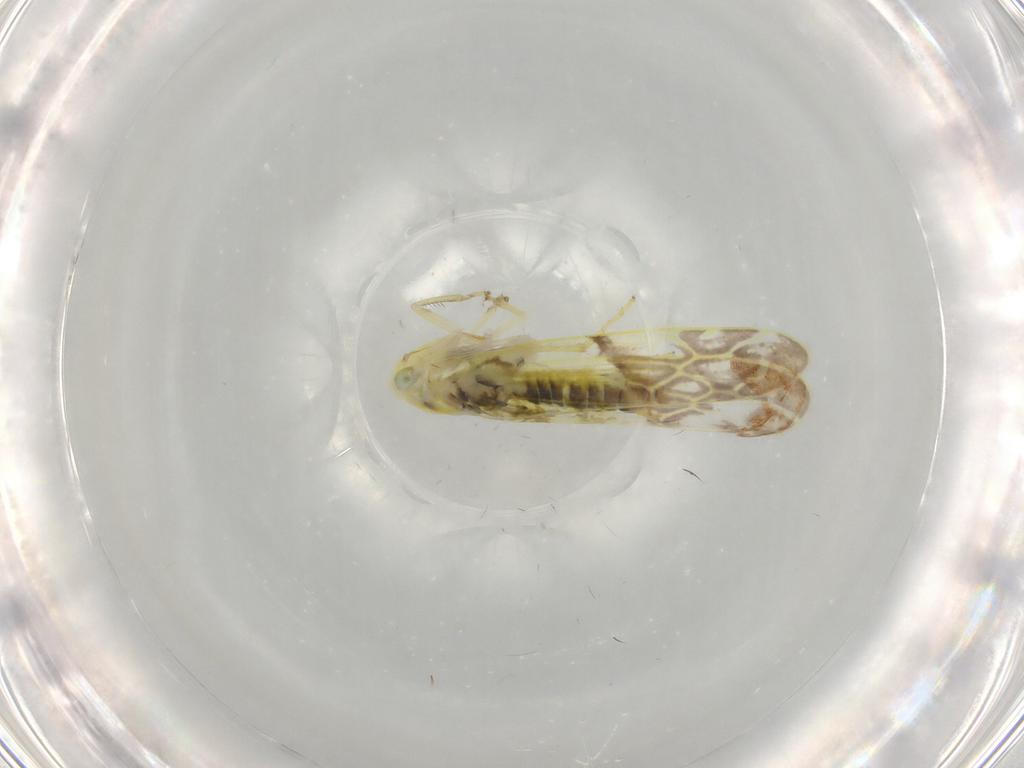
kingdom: Animalia
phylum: Arthropoda
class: Insecta
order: Hemiptera
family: Cicadellidae
